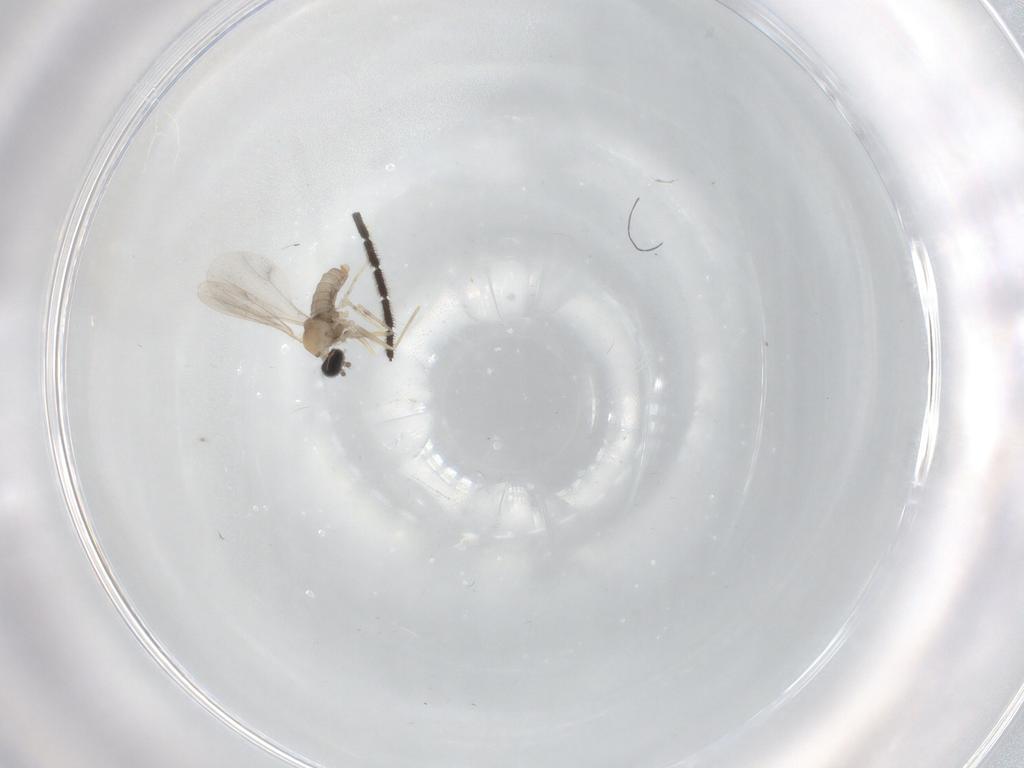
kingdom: Animalia
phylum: Arthropoda
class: Insecta
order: Diptera
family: Cecidomyiidae
